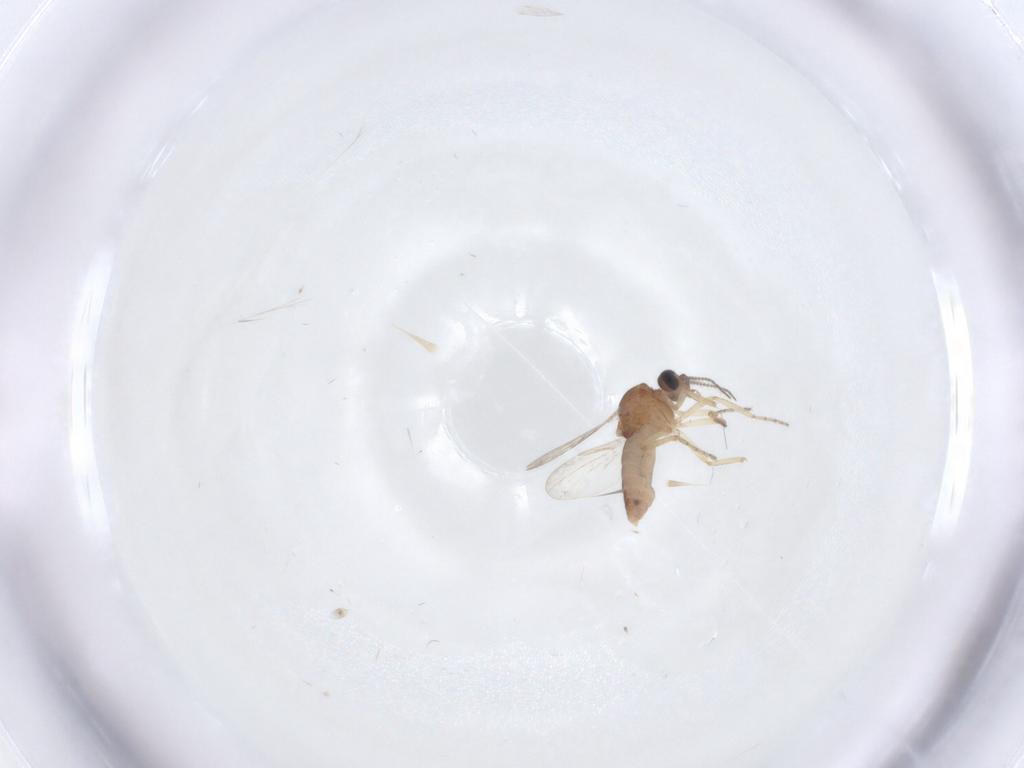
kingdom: Animalia
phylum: Arthropoda
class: Insecta
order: Diptera
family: Ceratopogonidae
